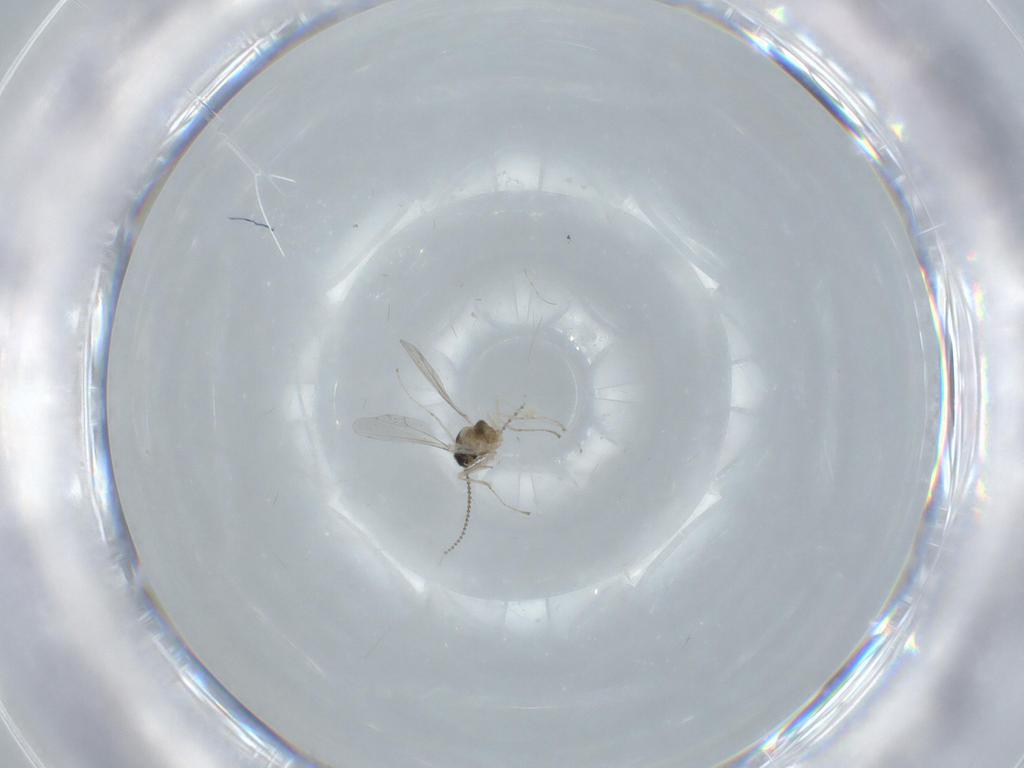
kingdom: Animalia
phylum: Arthropoda
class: Insecta
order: Diptera
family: Cecidomyiidae
